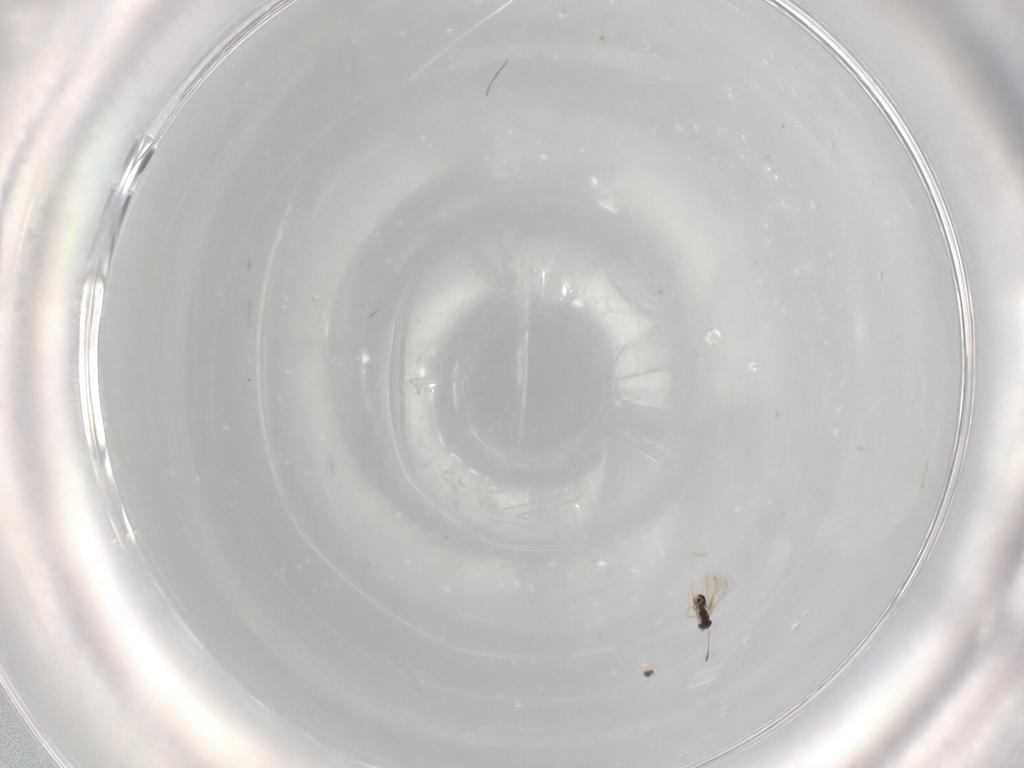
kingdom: Animalia
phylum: Arthropoda
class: Insecta
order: Hymenoptera
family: Mymaridae
